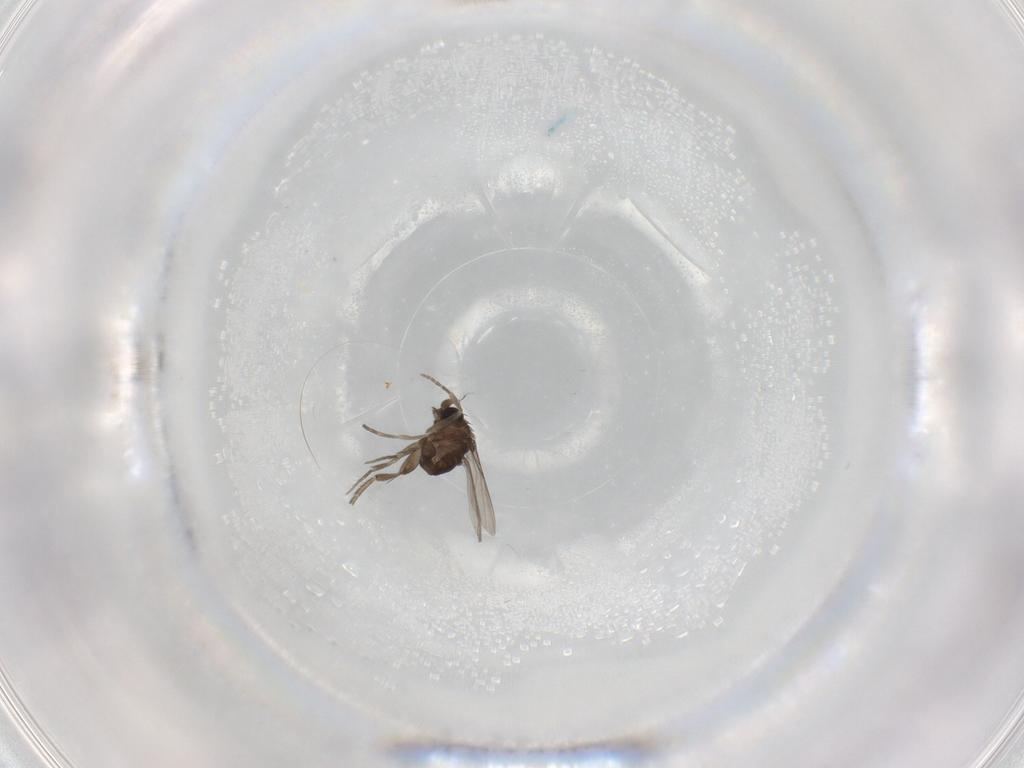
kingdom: Animalia
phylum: Arthropoda
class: Insecta
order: Diptera
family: Phoridae
